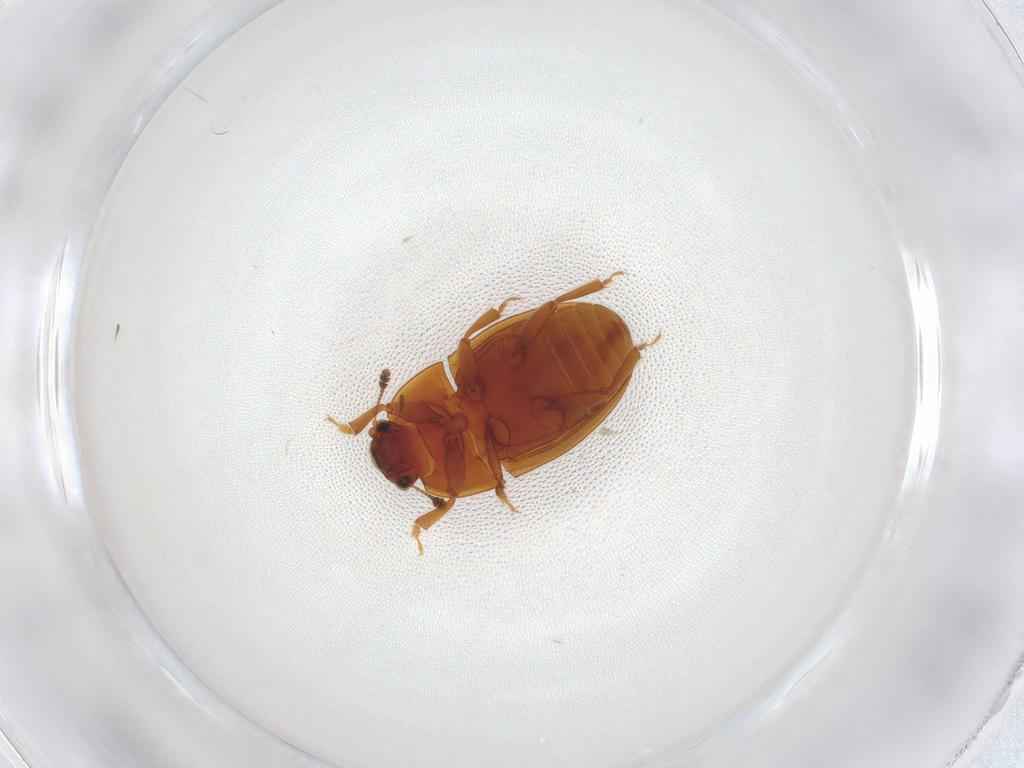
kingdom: Animalia
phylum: Arthropoda
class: Insecta
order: Coleoptera
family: Nitidulidae
